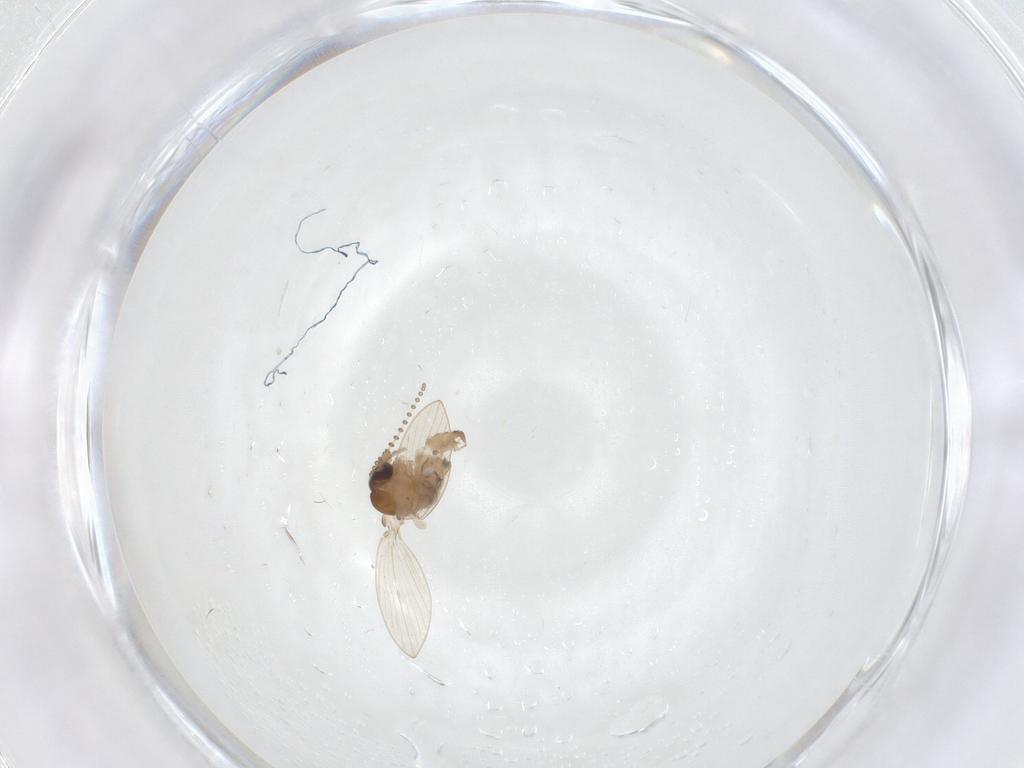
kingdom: Animalia
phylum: Arthropoda
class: Insecta
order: Diptera
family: Psychodidae
